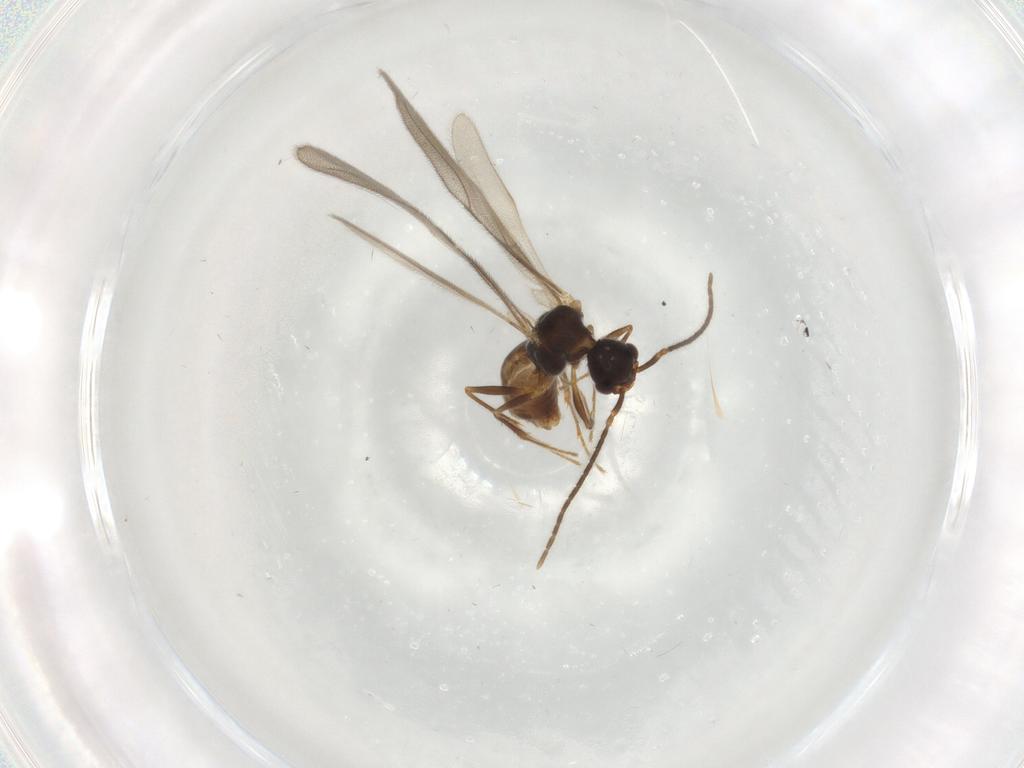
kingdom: Animalia
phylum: Arthropoda
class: Insecta
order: Hymenoptera
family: Bethylidae
